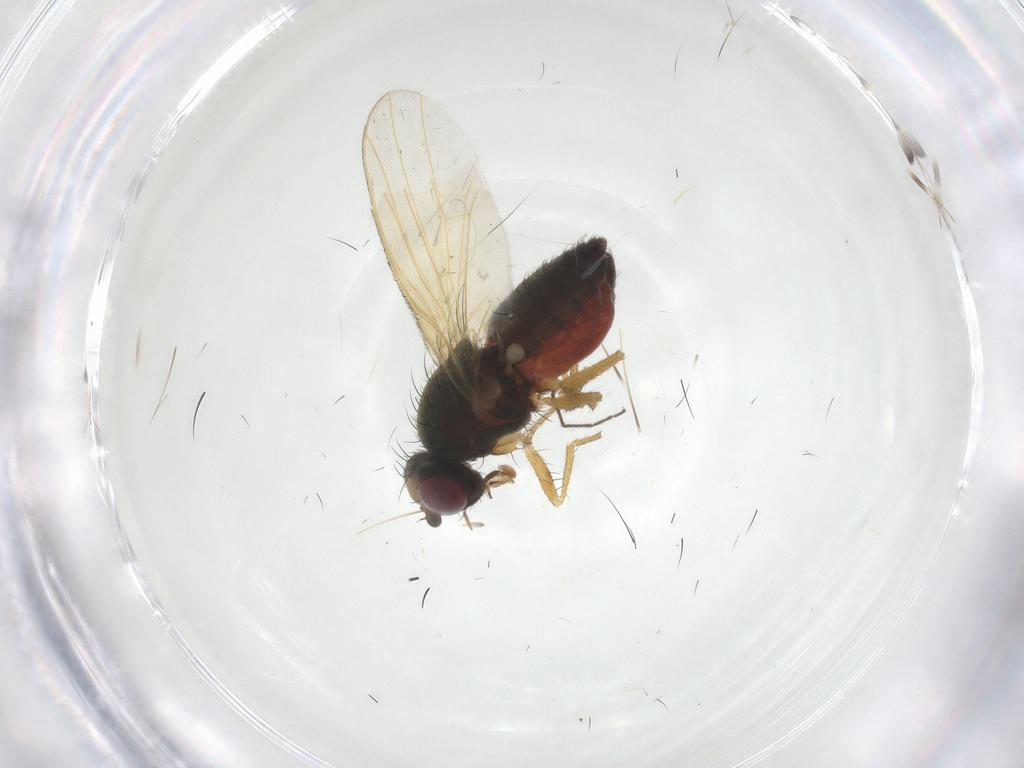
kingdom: Animalia
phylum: Arthropoda
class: Insecta
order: Diptera
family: Heleomyzidae
